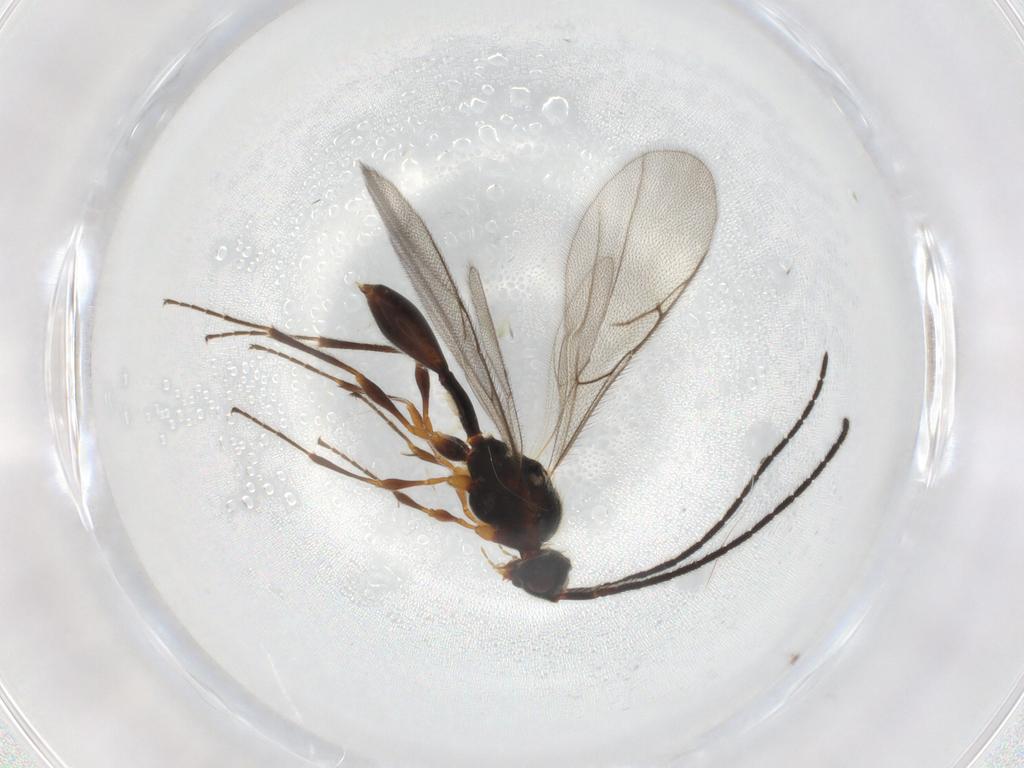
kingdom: Animalia
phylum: Arthropoda
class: Insecta
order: Hymenoptera
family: Diapriidae
